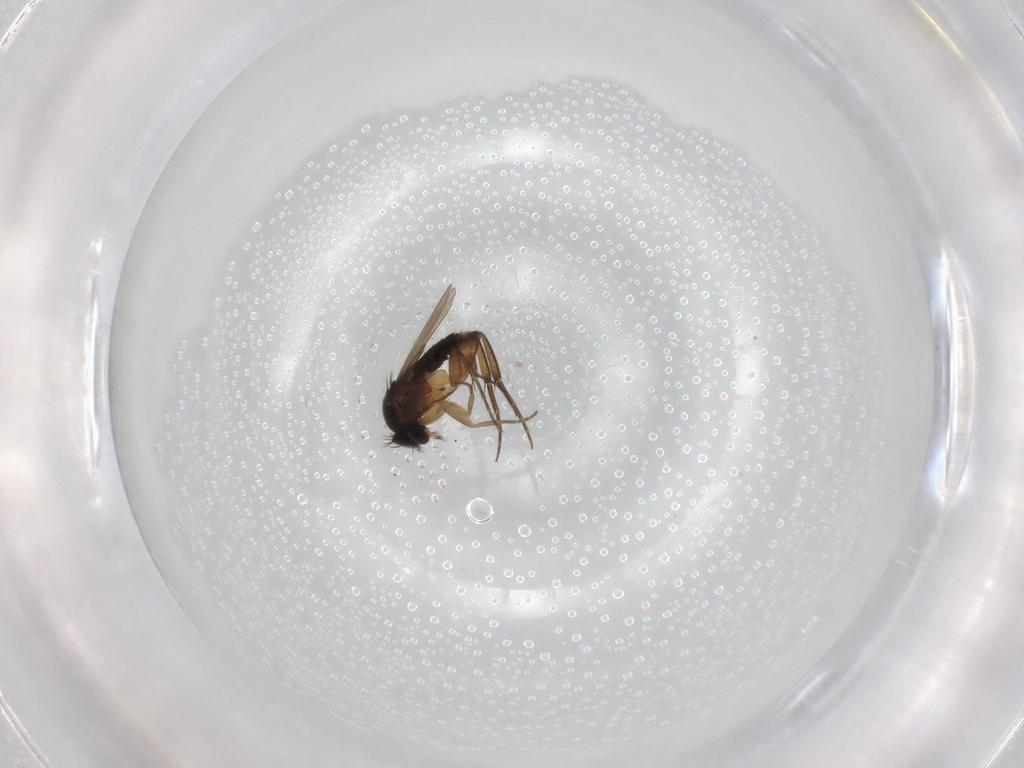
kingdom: Animalia
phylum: Arthropoda
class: Insecta
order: Diptera
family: Phoridae
